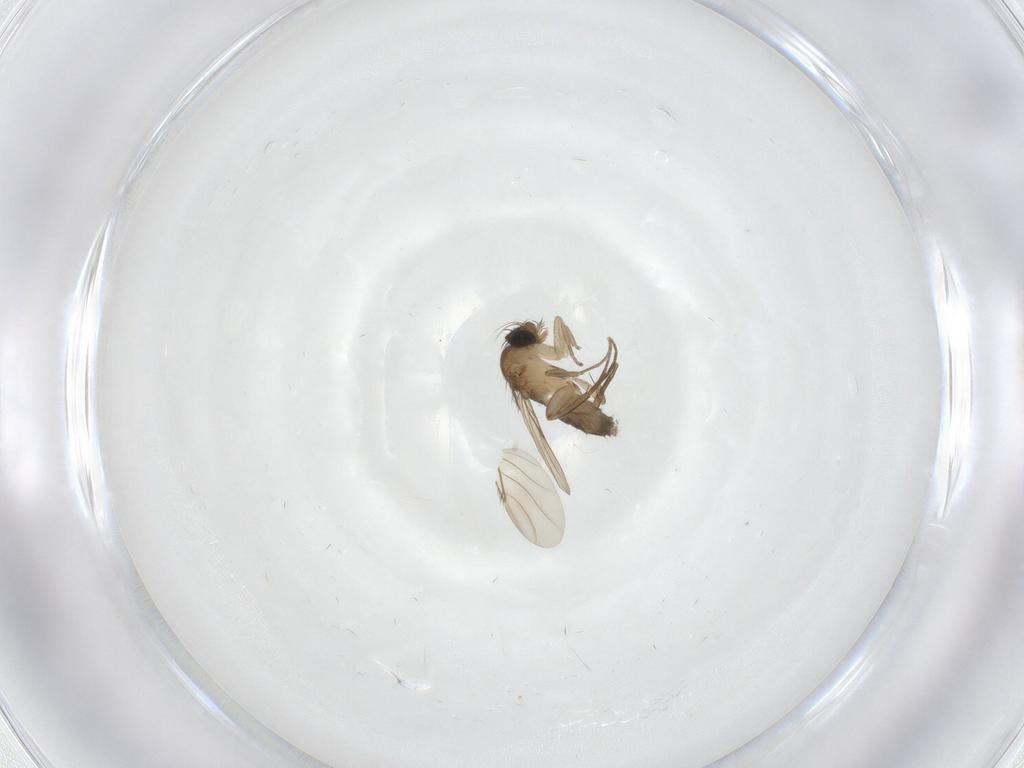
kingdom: Animalia
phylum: Arthropoda
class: Insecta
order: Diptera
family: Phoridae
